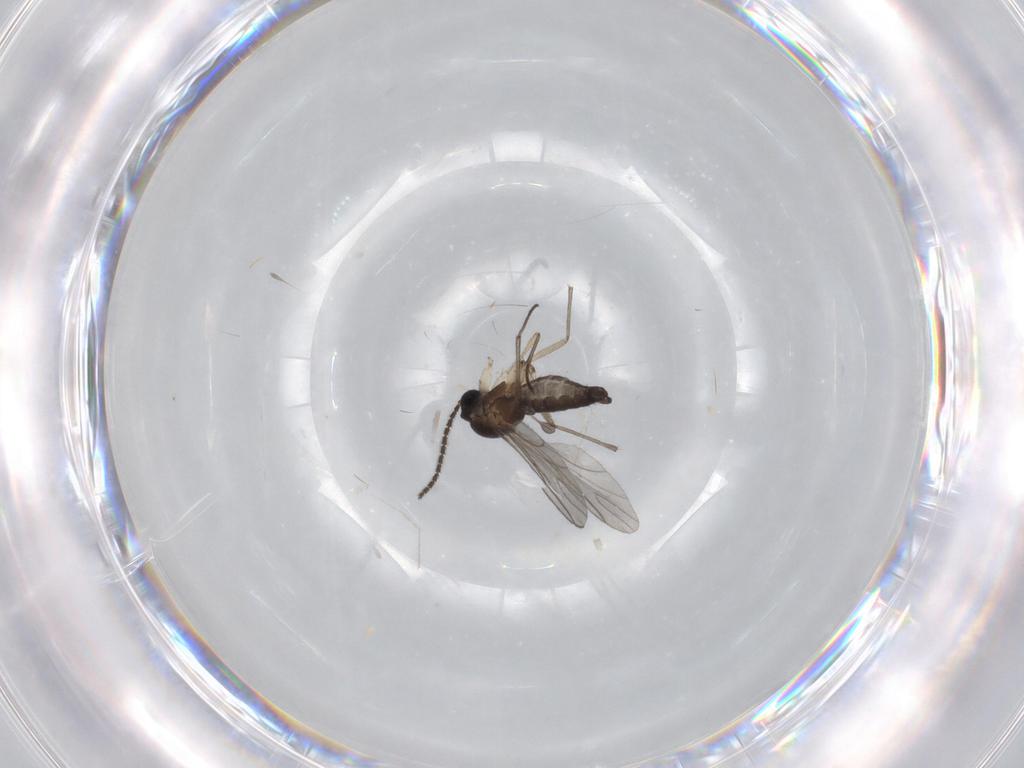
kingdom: Animalia
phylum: Arthropoda
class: Insecta
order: Diptera
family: Sciaridae
